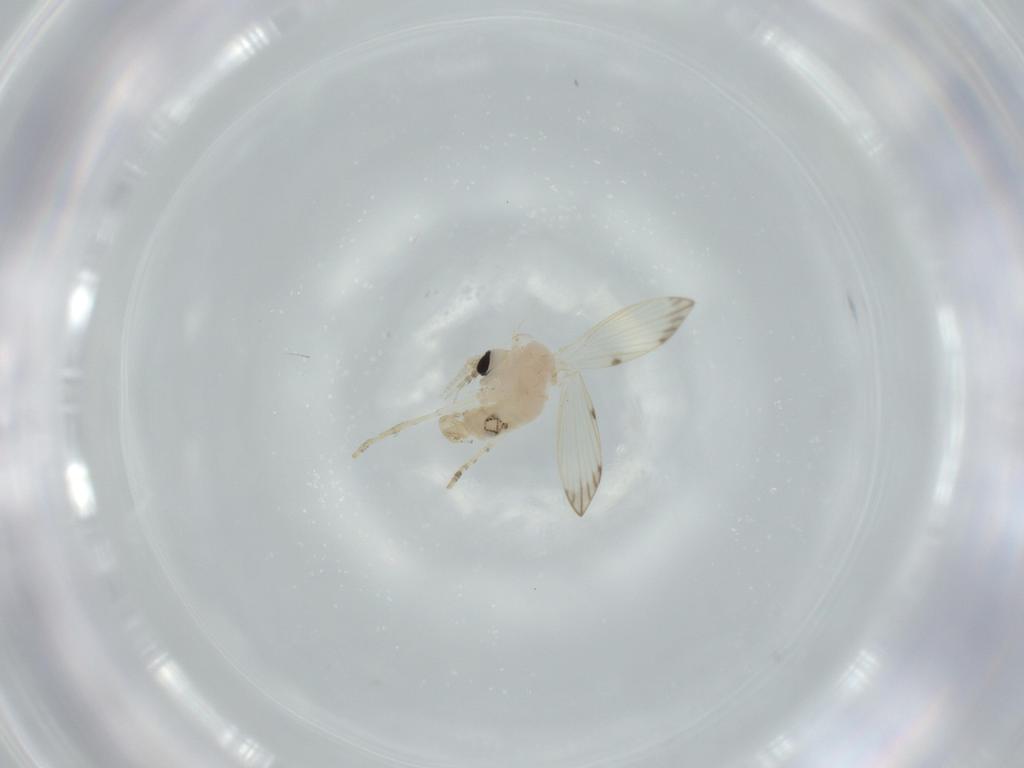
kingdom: Animalia
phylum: Arthropoda
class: Insecta
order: Diptera
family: Psychodidae
